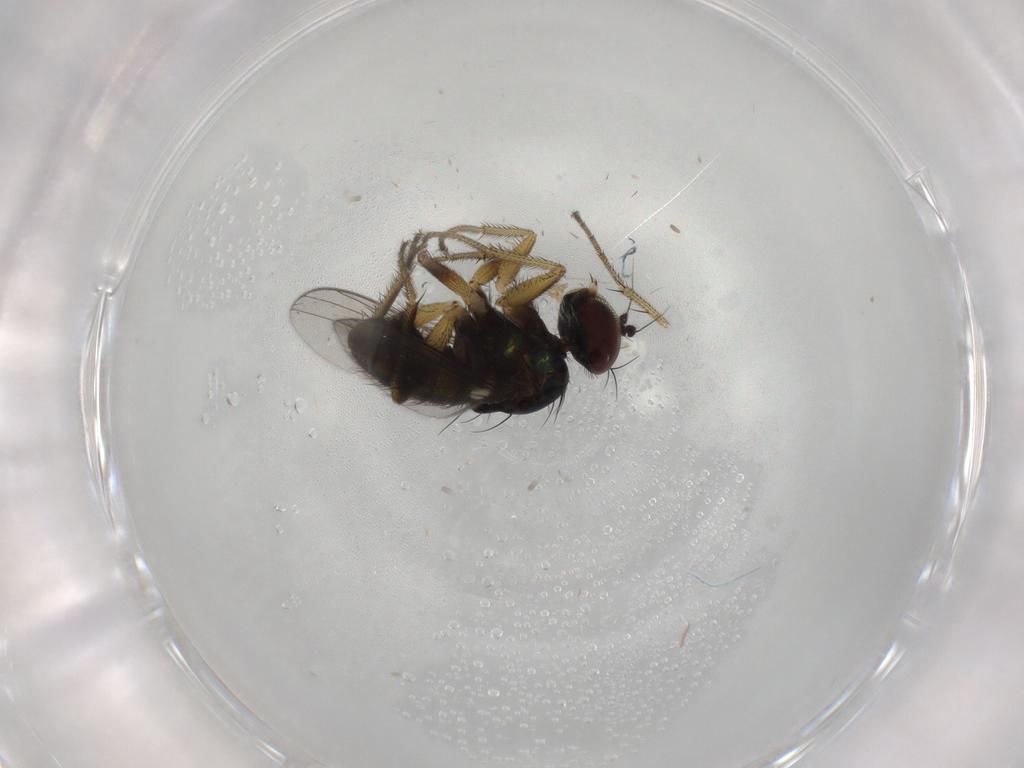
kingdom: Animalia
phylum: Arthropoda
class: Insecta
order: Diptera
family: Dolichopodidae
